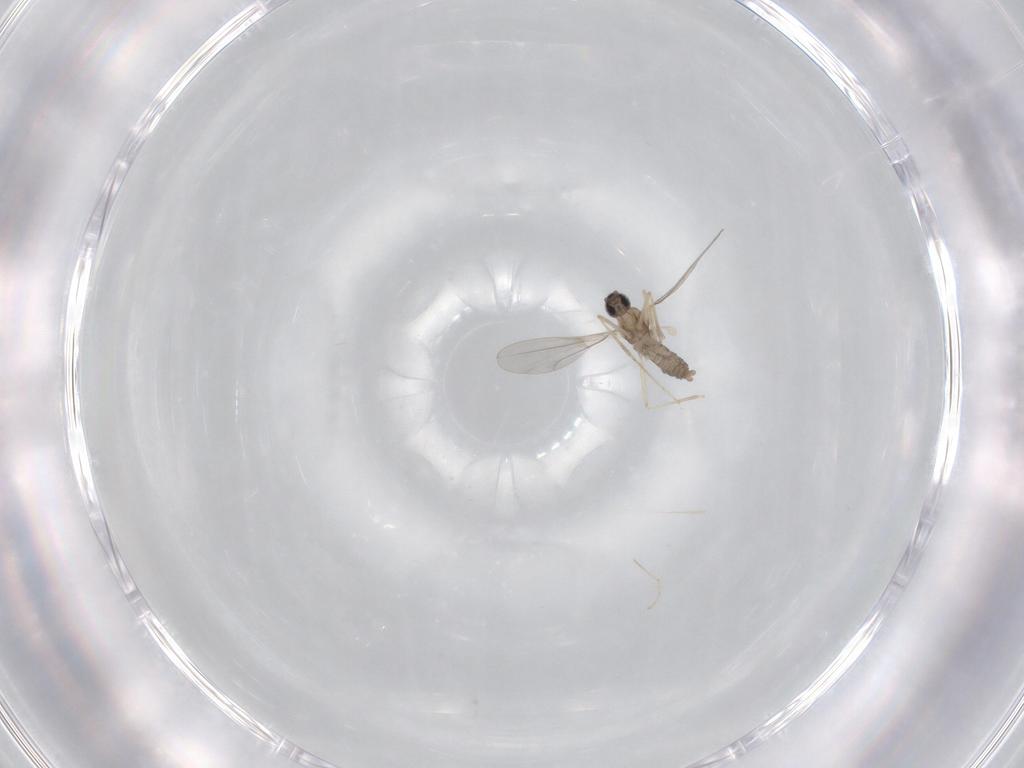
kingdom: Animalia
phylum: Arthropoda
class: Insecta
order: Diptera
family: Cecidomyiidae
